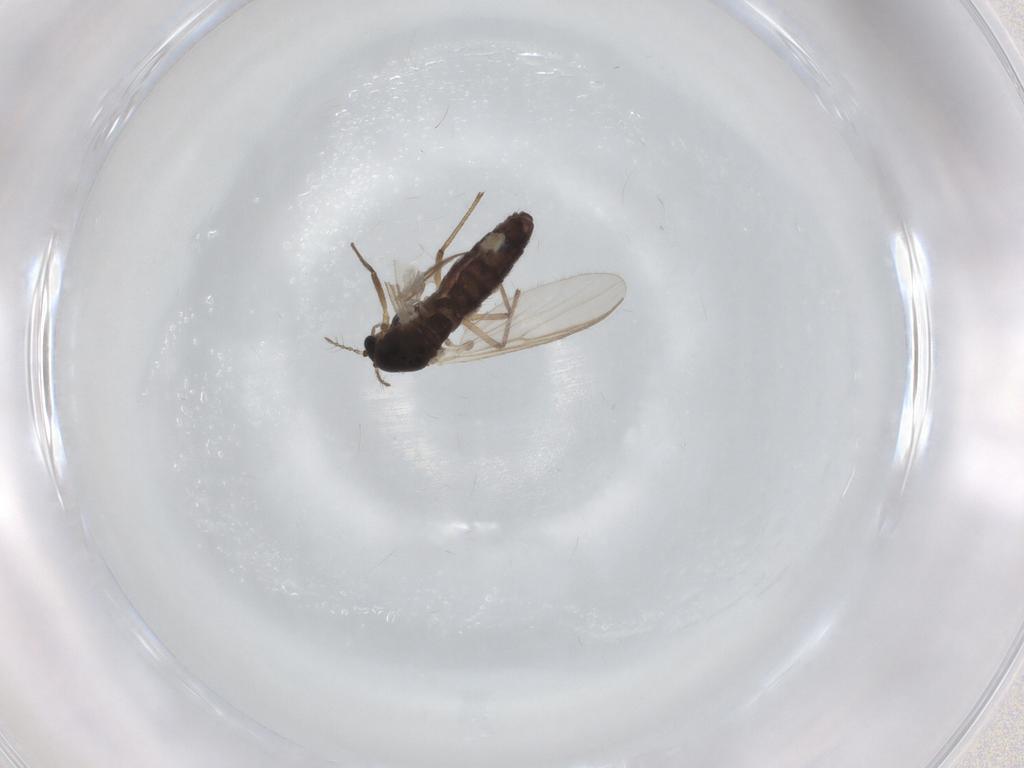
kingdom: Animalia
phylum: Arthropoda
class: Insecta
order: Diptera
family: Chironomidae
